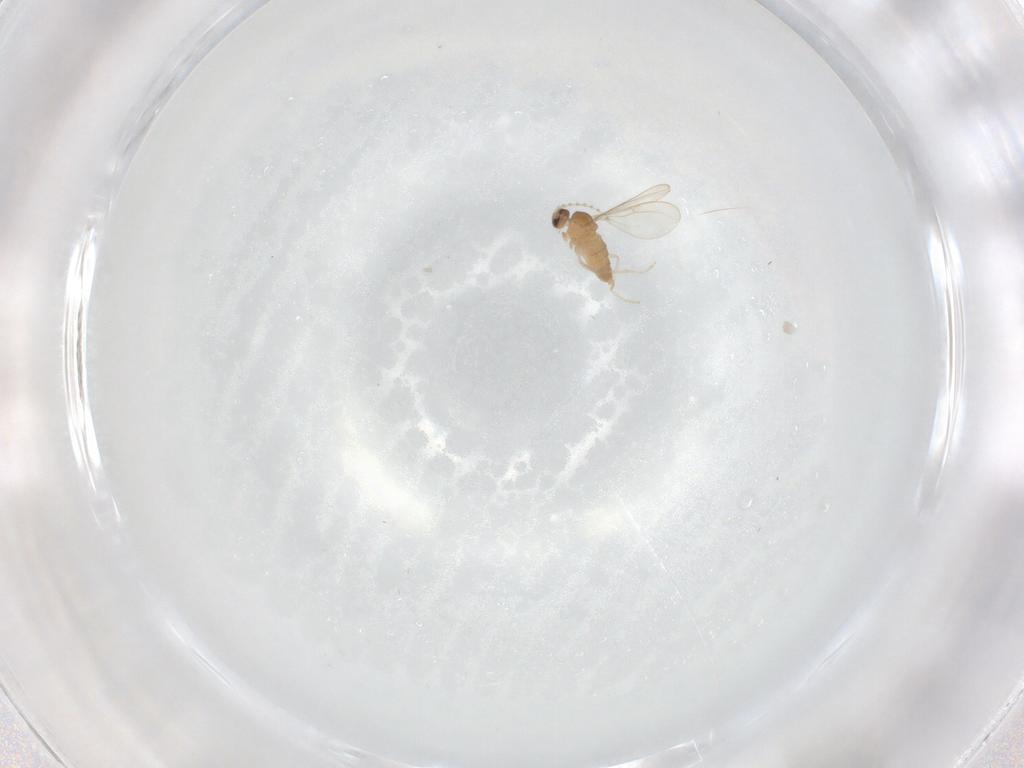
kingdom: Animalia
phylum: Arthropoda
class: Insecta
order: Diptera
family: Cecidomyiidae
